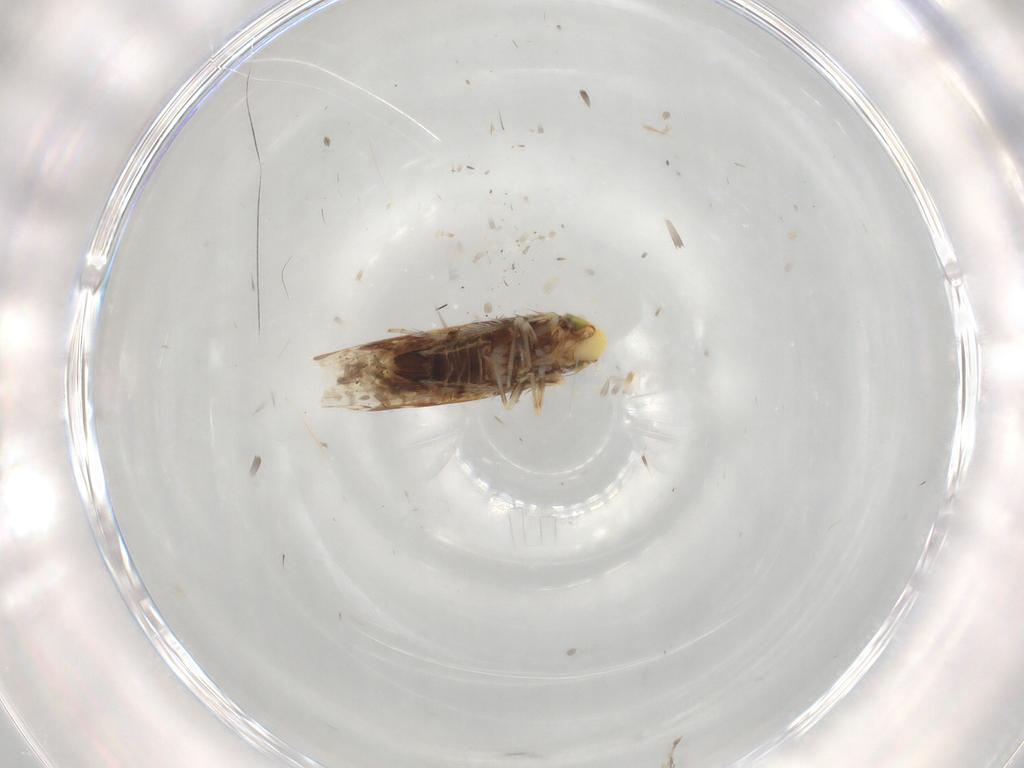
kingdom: Animalia
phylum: Arthropoda
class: Insecta
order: Hemiptera
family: Cicadellidae
